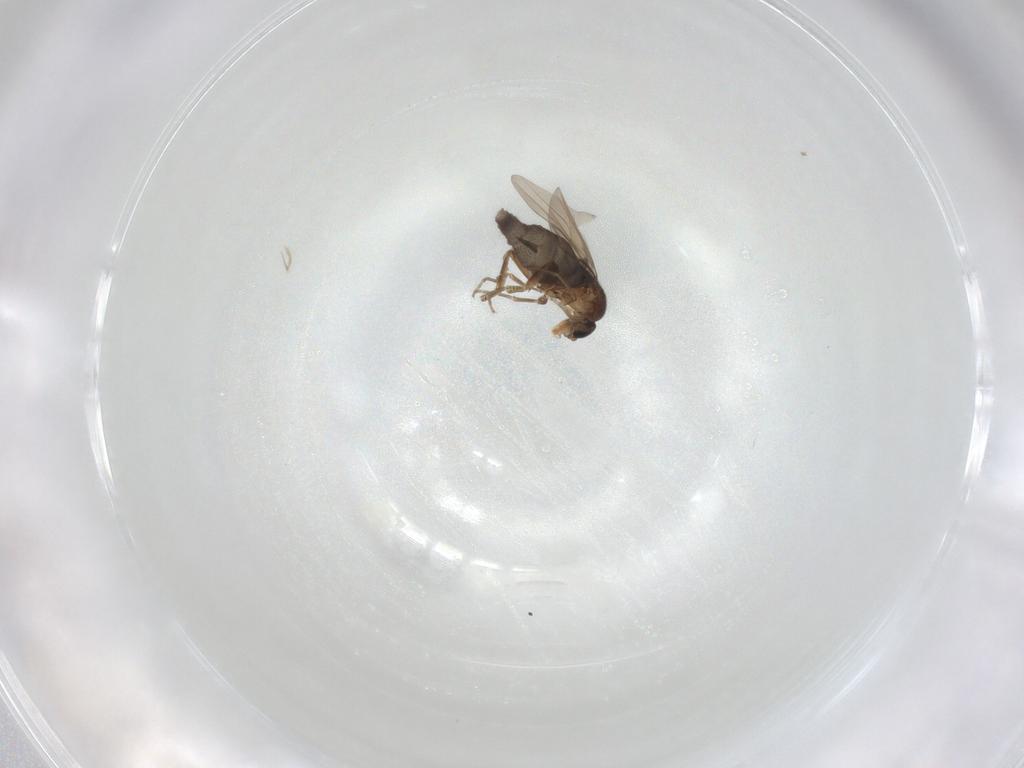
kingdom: Animalia
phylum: Arthropoda
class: Insecta
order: Diptera
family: Phoridae
